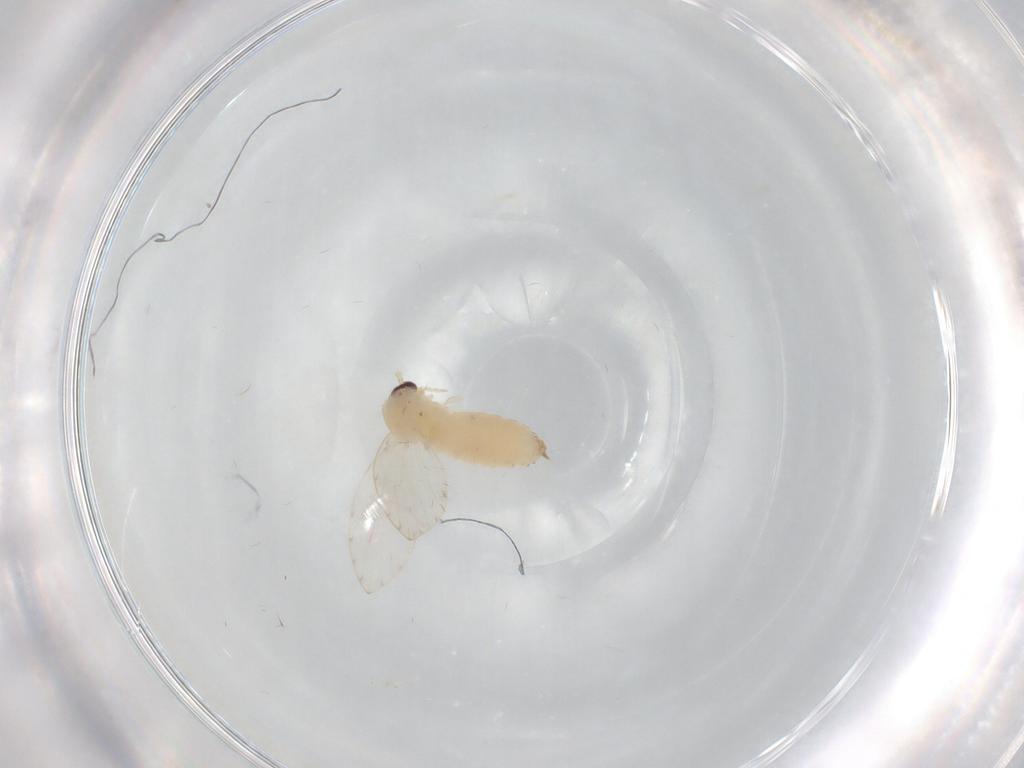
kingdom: Animalia
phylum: Arthropoda
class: Insecta
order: Diptera
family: Psychodidae
